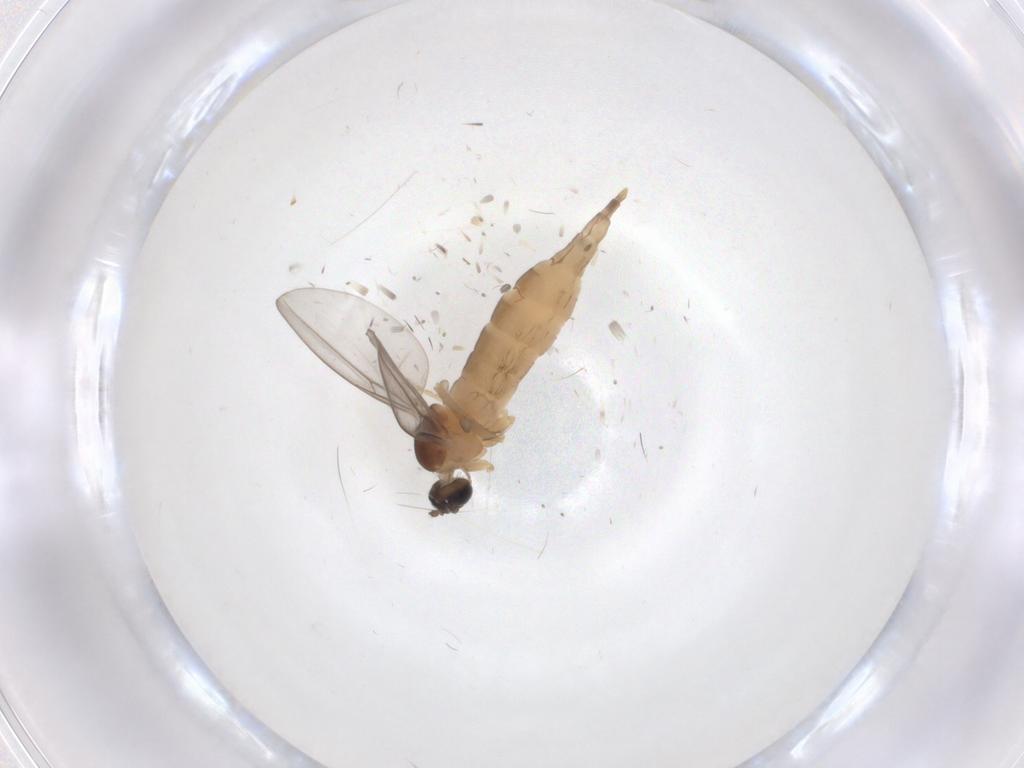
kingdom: Animalia
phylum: Arthropoda
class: Insecta
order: Diptera
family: Cecidomyiidae
